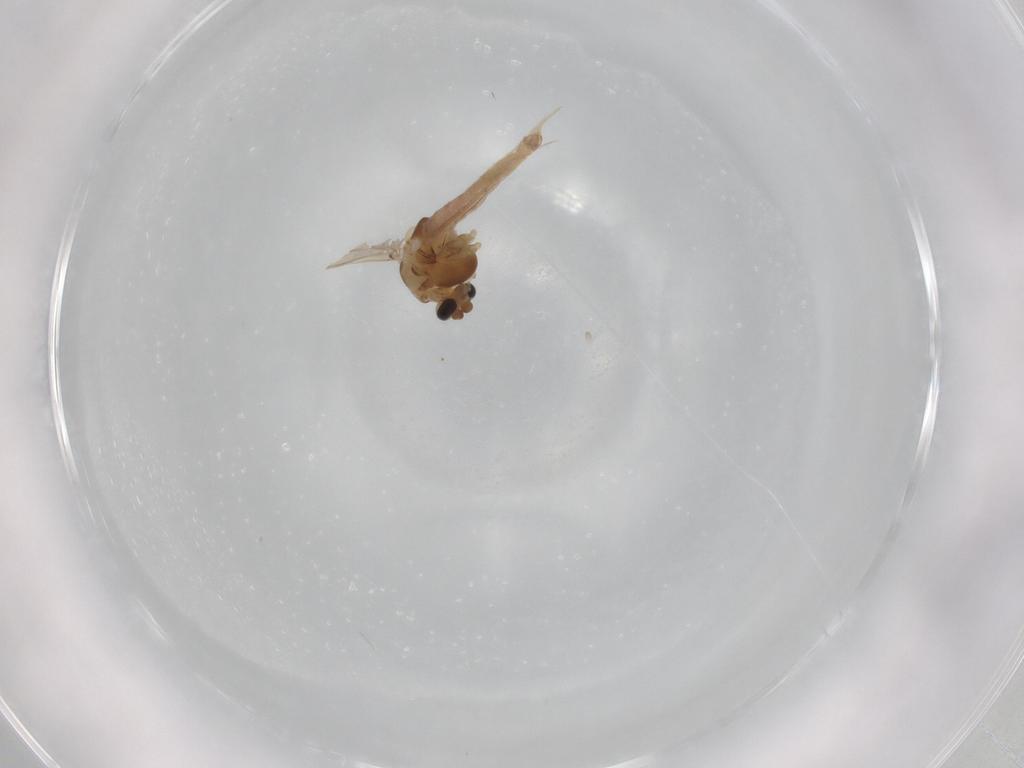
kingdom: Animalia
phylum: Arthropoda
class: Insecta
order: Diptera
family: Chironomidae
